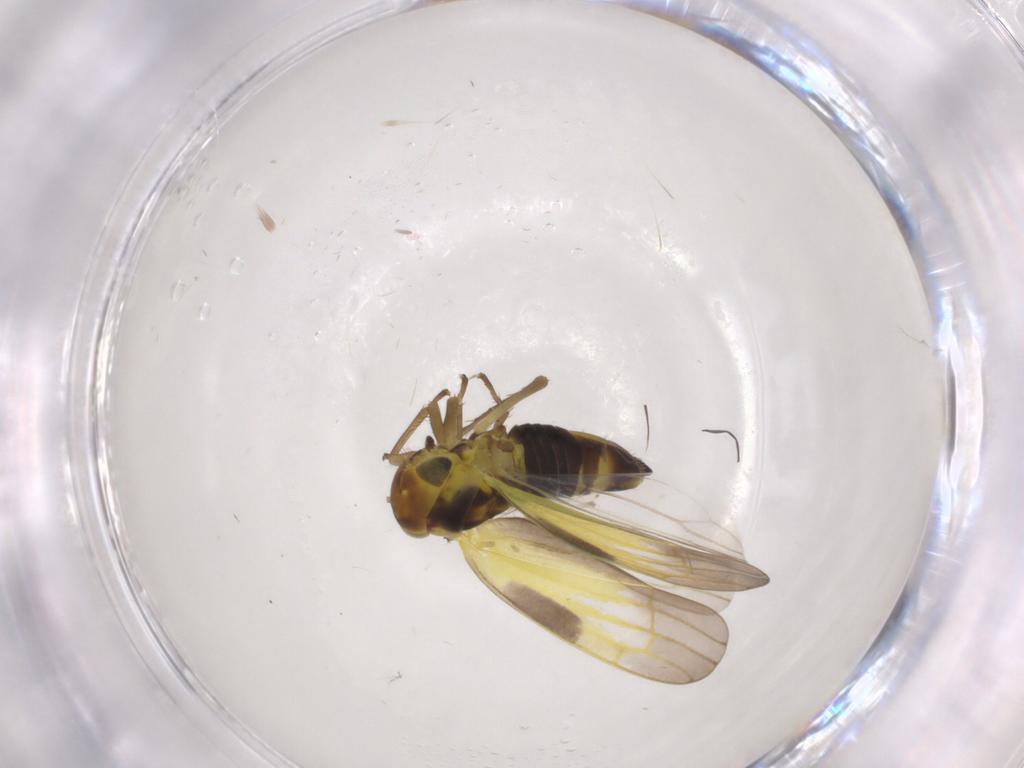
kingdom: Animalia
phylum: Arthropoda
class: Insecta
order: Hemiptera
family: Cicadellidae
